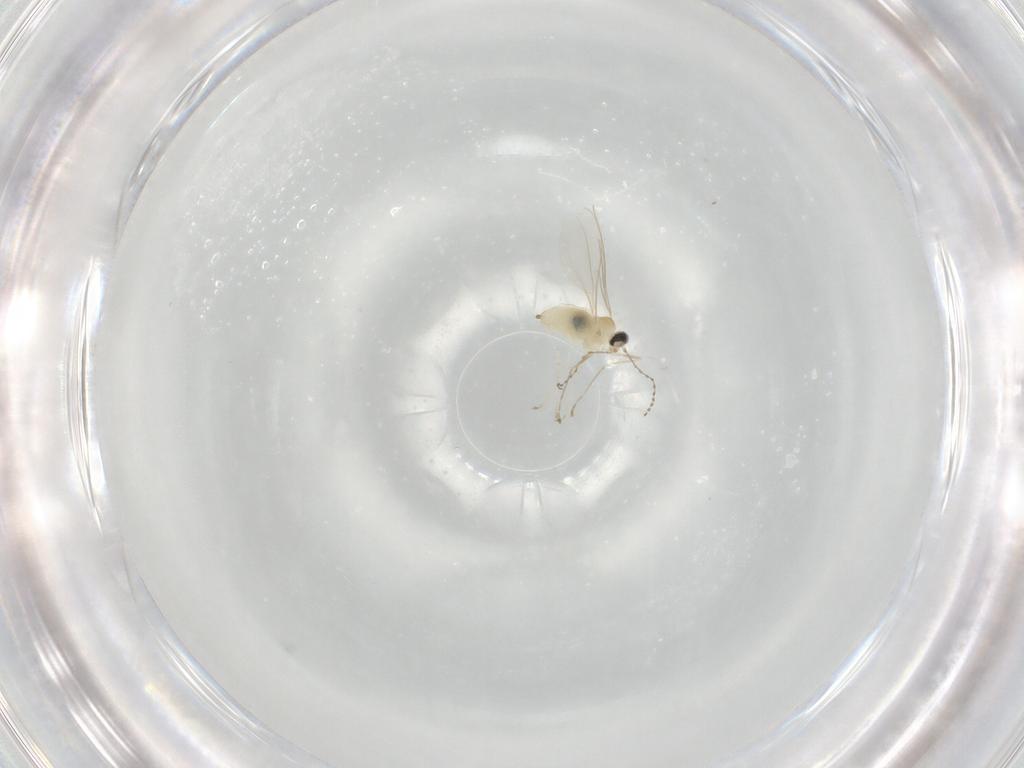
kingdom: Animalia
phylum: Arthropoda
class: Insecta
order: Diptera
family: Cecidomyiidae
